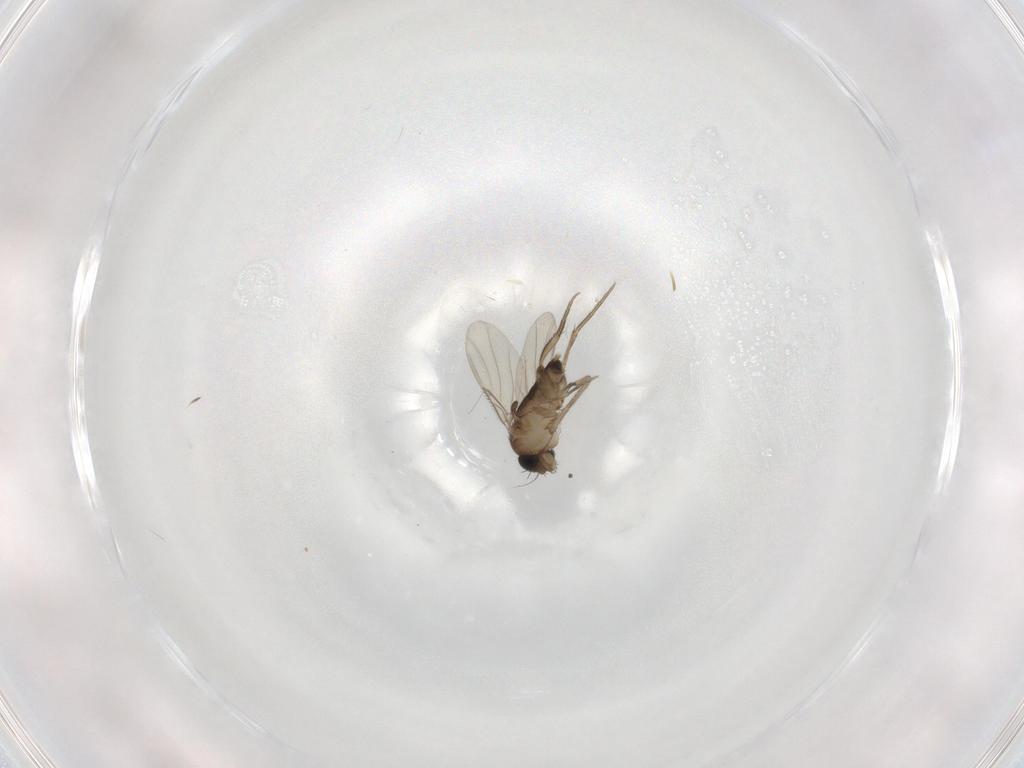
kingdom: Animalia
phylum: Arthropoda
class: Insecta
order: Diptera
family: Phoridae
